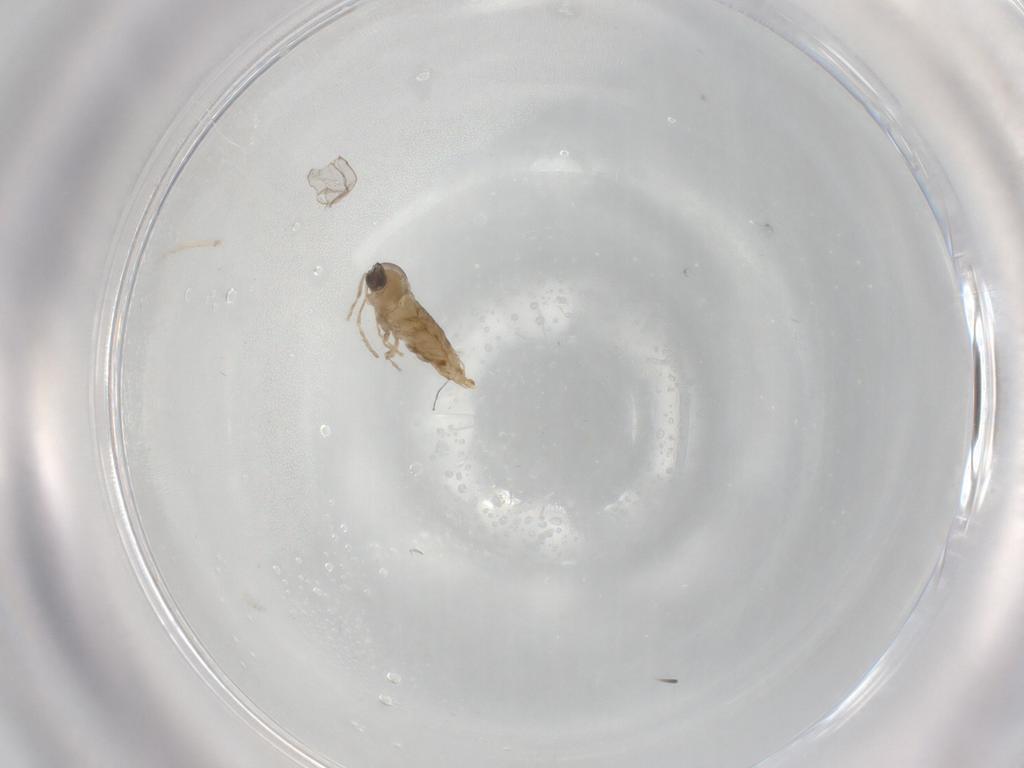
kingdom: Animalia
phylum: Arthropoda
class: Insecta
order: Diptera
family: Cecidomyiidae
